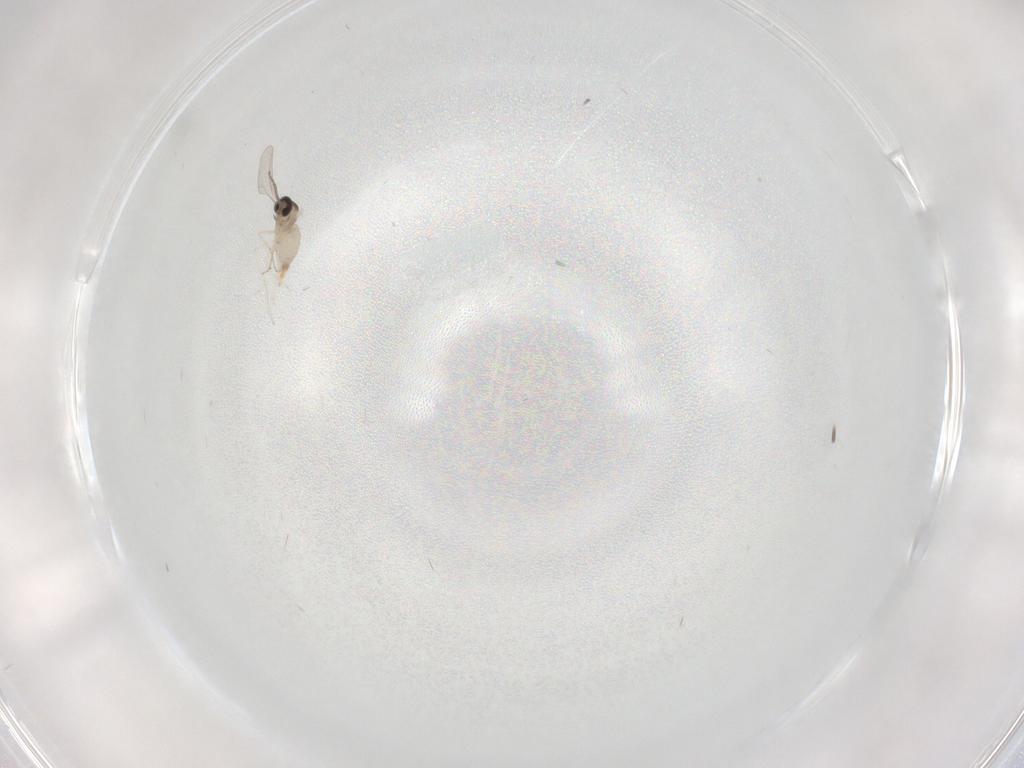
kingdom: Animalia
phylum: Arthropoda
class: Insecta
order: Diptera
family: Cecidomyiidae
